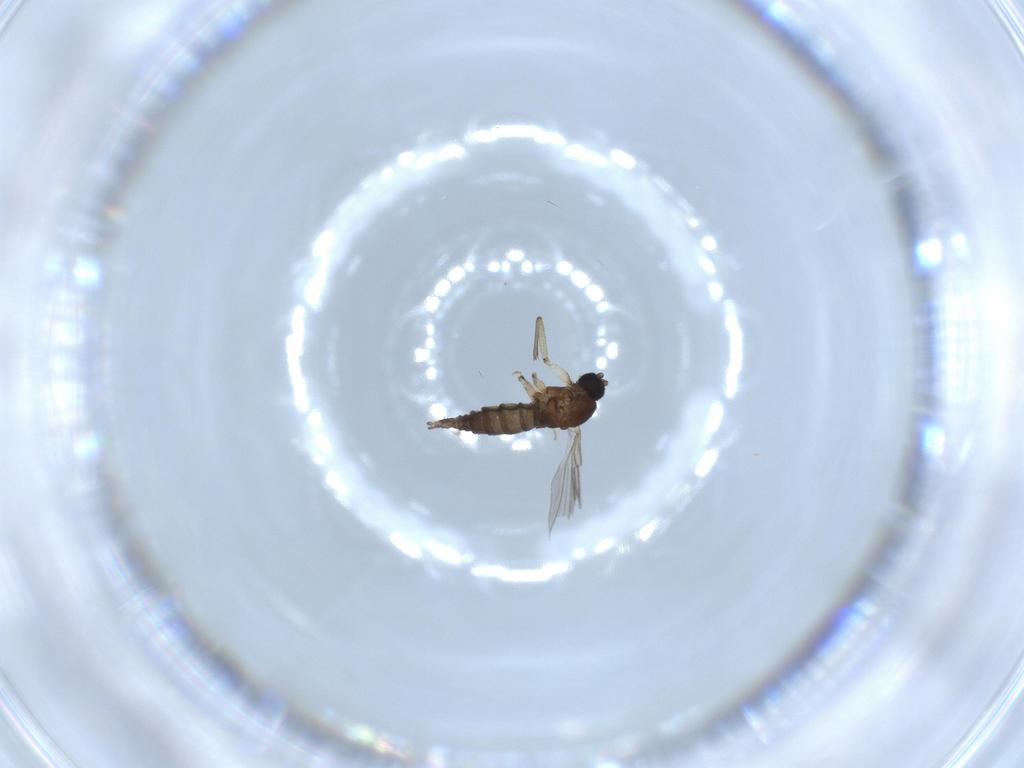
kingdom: Animalia
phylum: Arthropoda
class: Insecta
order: Diptera
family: Sciaridae
